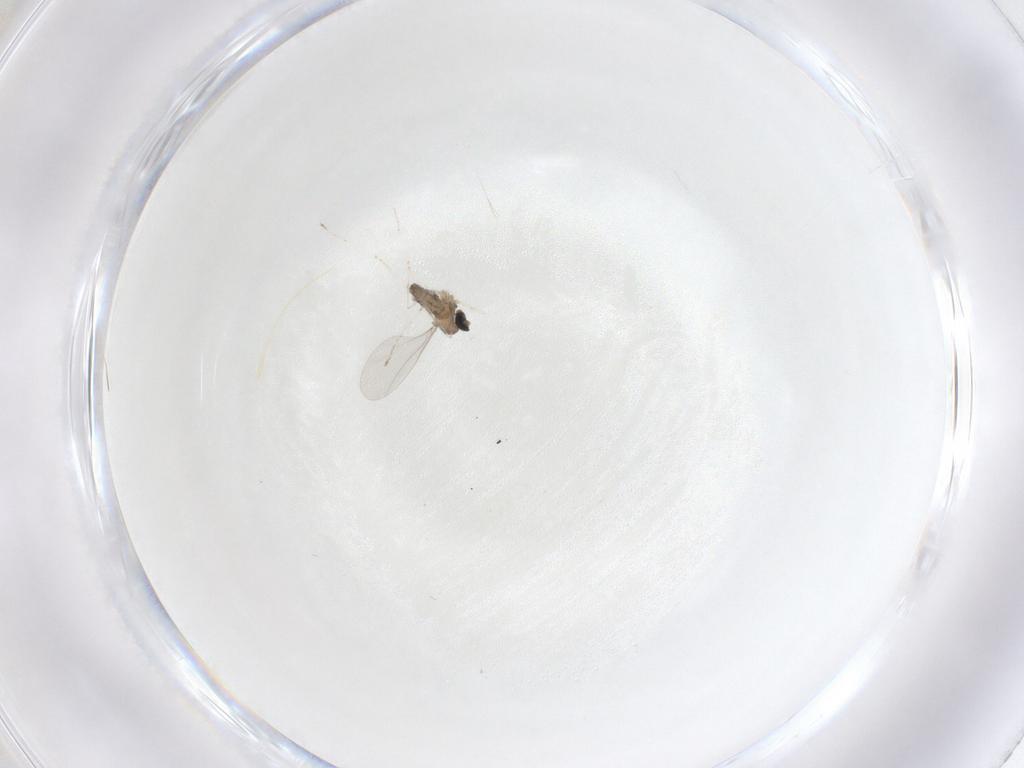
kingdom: Animalia
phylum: Arthropoda
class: Insecta
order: Diptera
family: Cecidomyiidae
